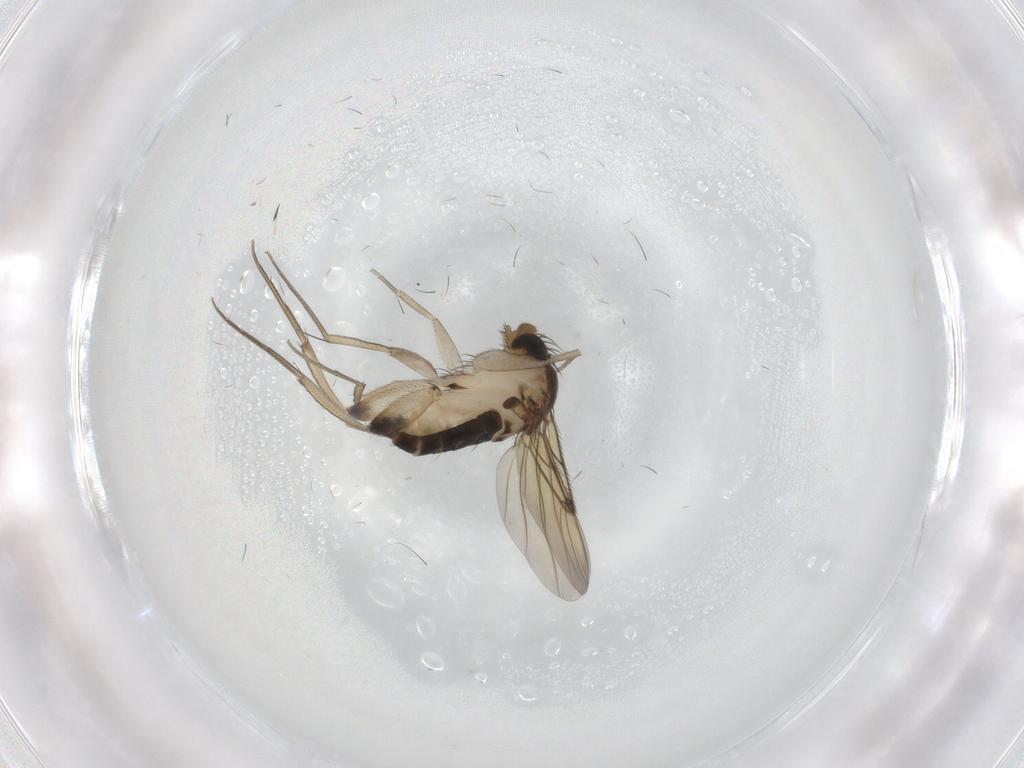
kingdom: Animalia
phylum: Arthropoda
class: Insecta
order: Diptera
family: Phoridae
